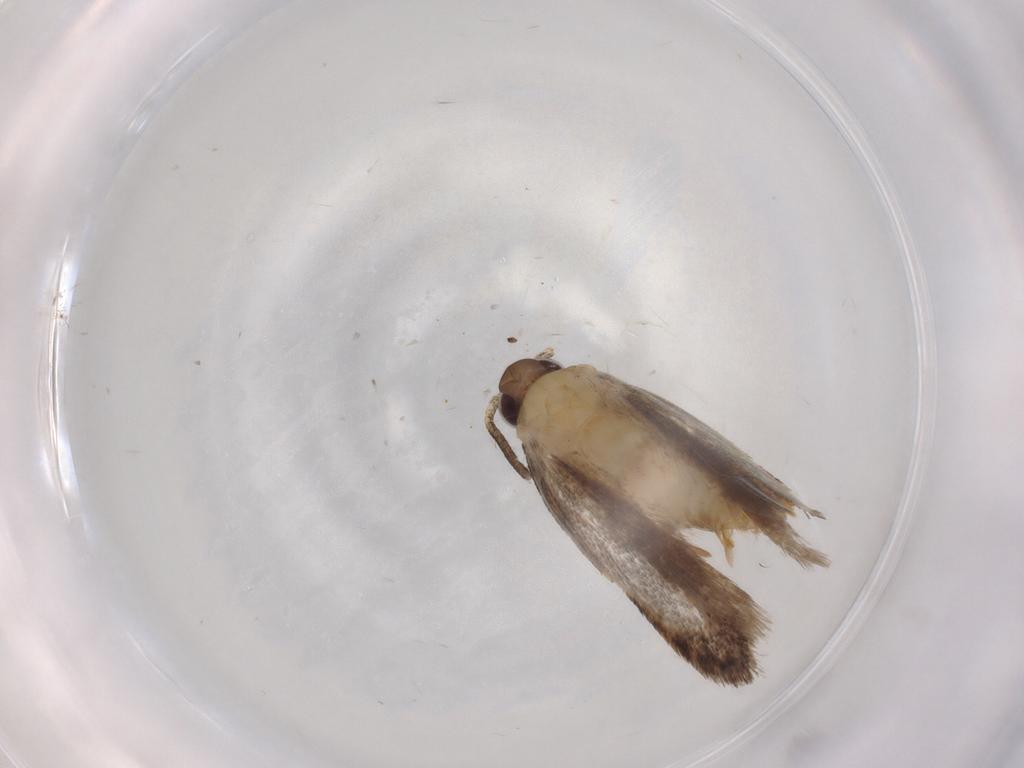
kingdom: Animalia
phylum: Arthropoda
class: Insecta
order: Lepidoptera
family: Autostichidae
